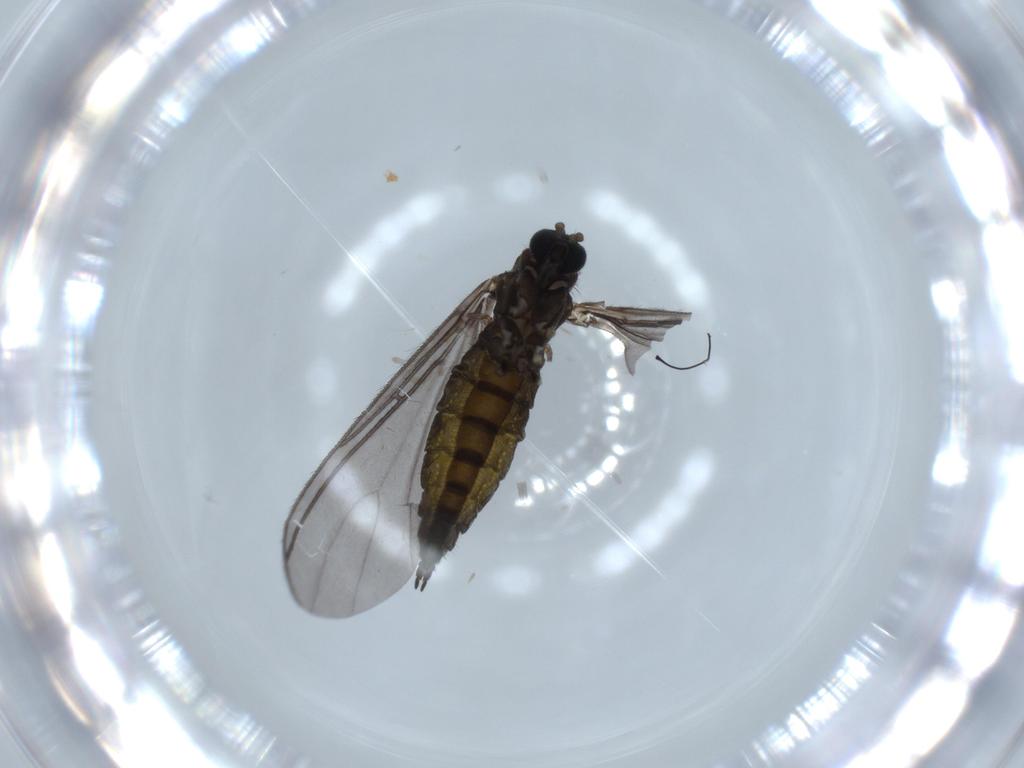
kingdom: Animalia
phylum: Arthropoda
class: Insecta
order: Diptera
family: Sciaridae
